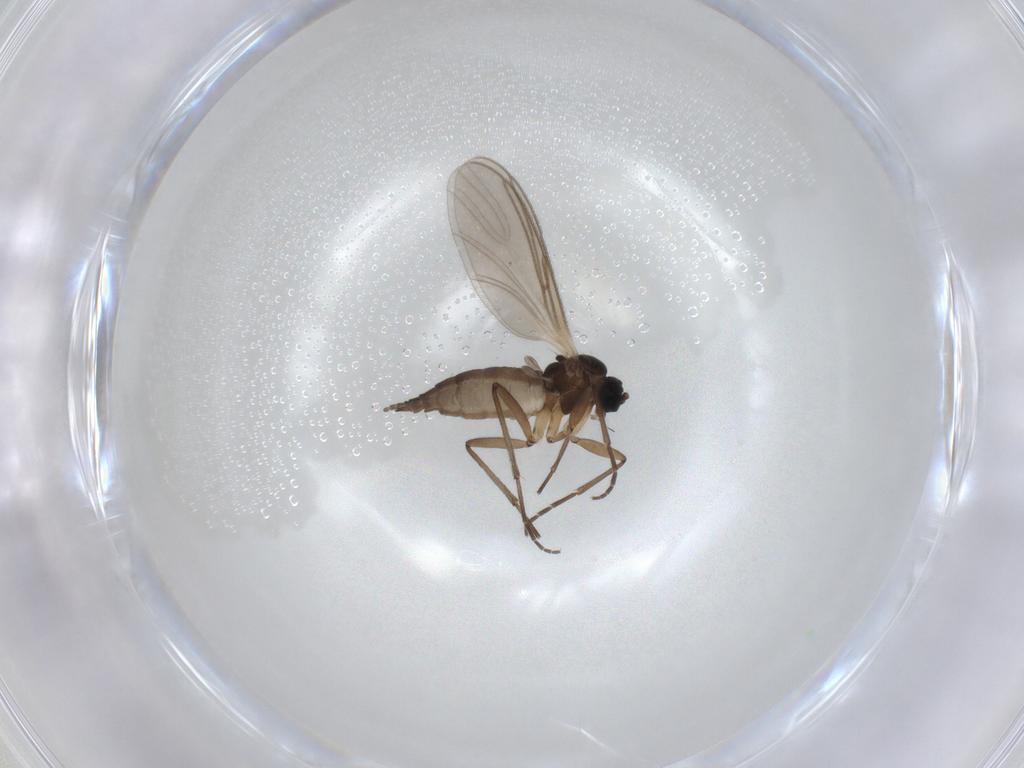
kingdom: Animalia
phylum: Arthropoda
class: Insecta
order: Diptera
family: Sciaridae
